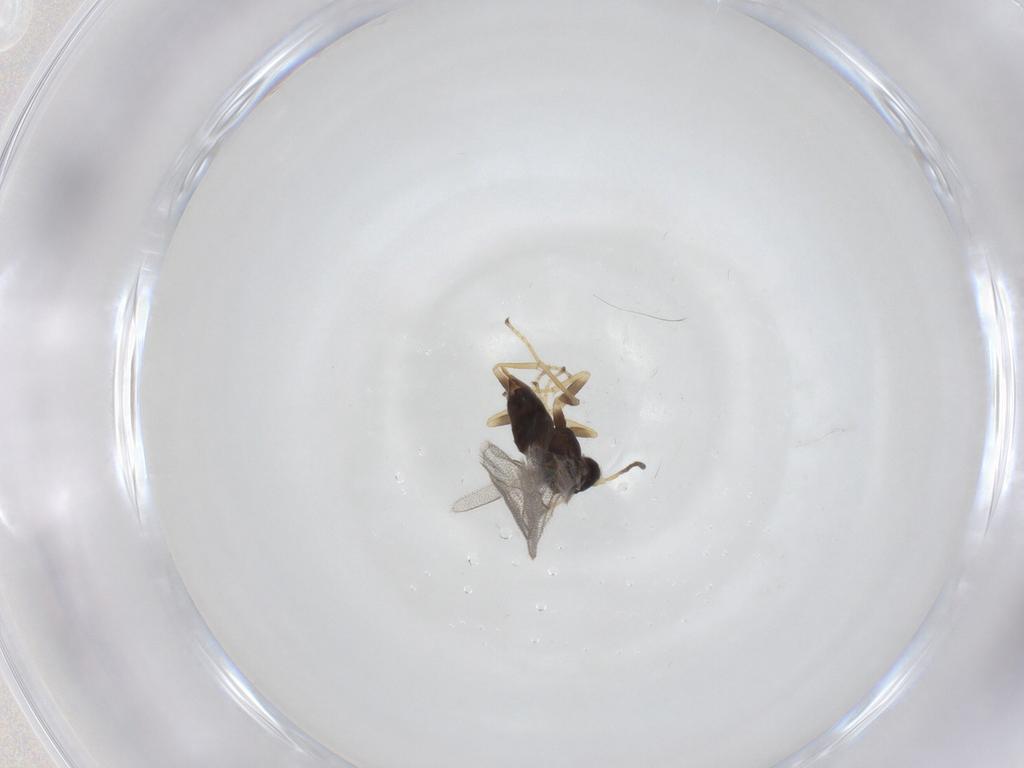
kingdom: Animalia
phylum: Arthropoda
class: Insecta
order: Hymenoptera
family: Cynipidae
